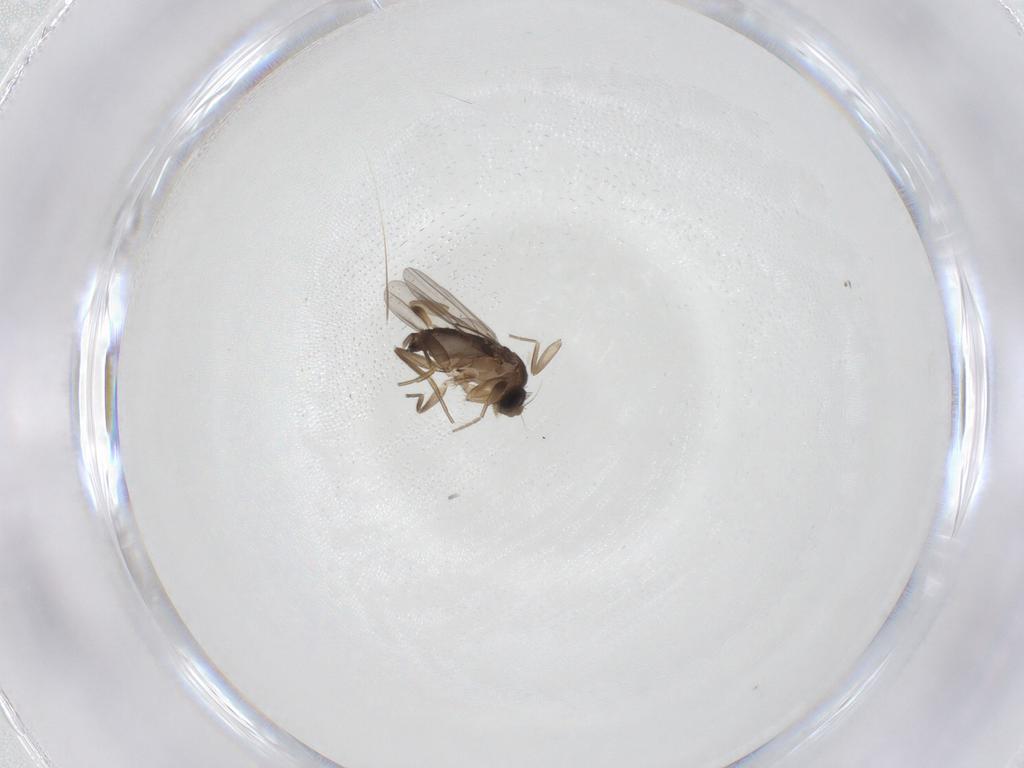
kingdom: Animalia
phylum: Arthropoda
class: Insecta
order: Diptera
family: Phoridae
